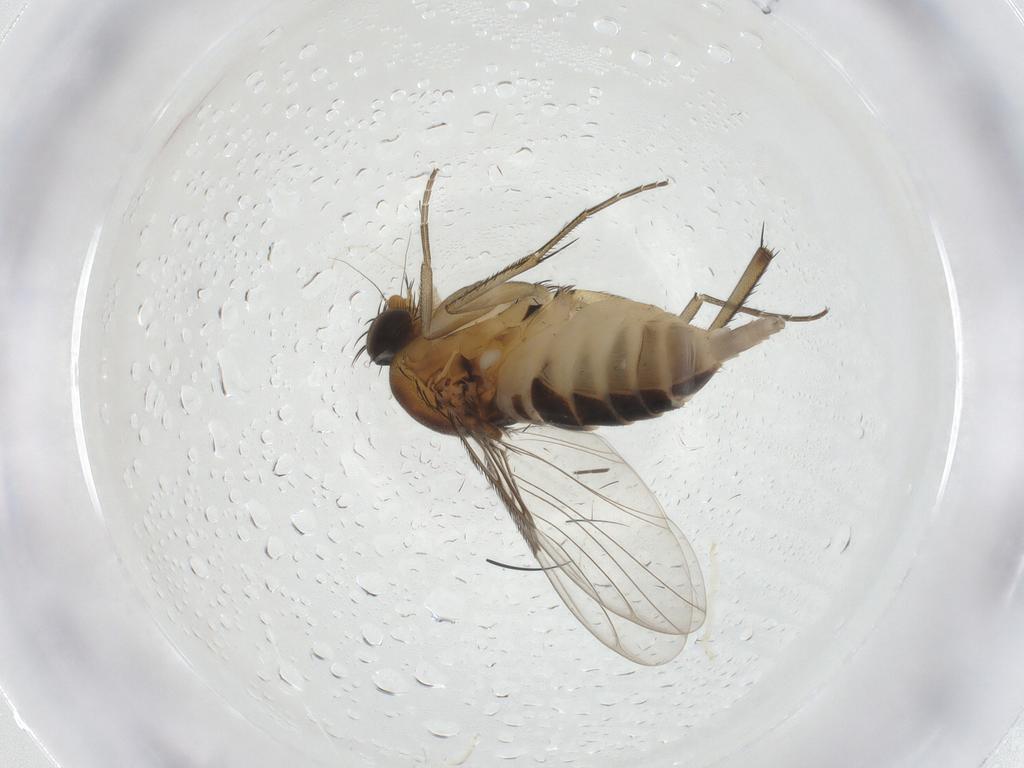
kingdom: Animalia
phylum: Arthropoda
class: Insecta
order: Diptera
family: Phoridae
